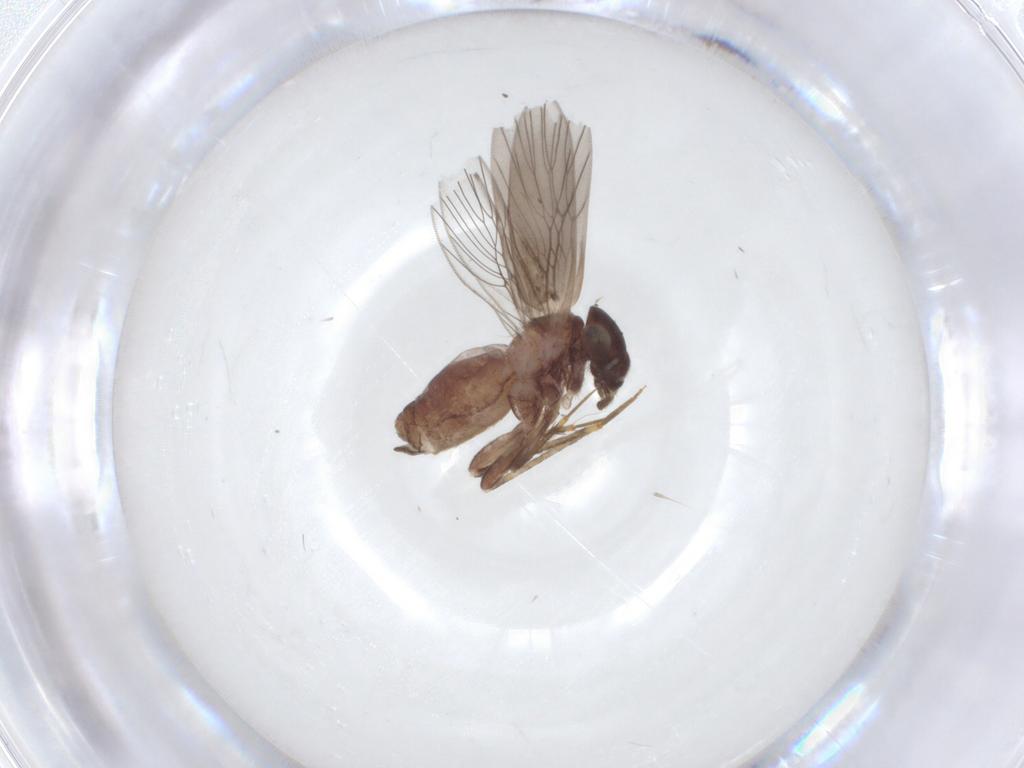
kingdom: Animalia
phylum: Arthropoda
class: Insecta
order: Psocodea
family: Lepidopsocidae
